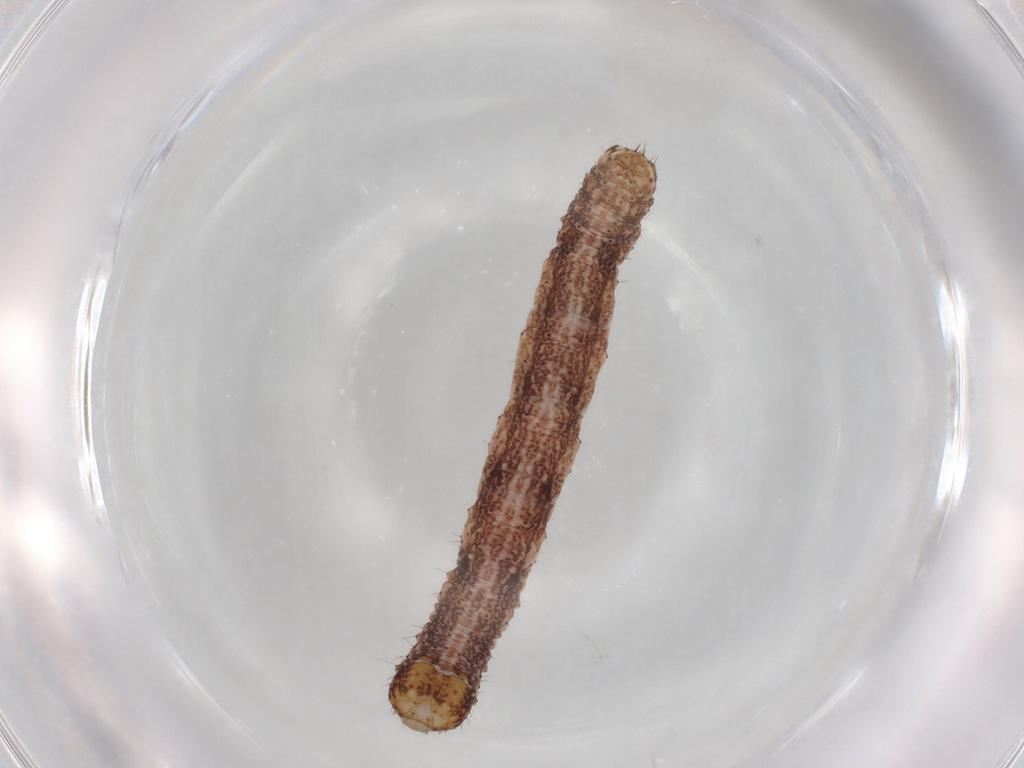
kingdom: Animalia
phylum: Arthropoda
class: Insecta
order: Lepidoptera
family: Geometridae
